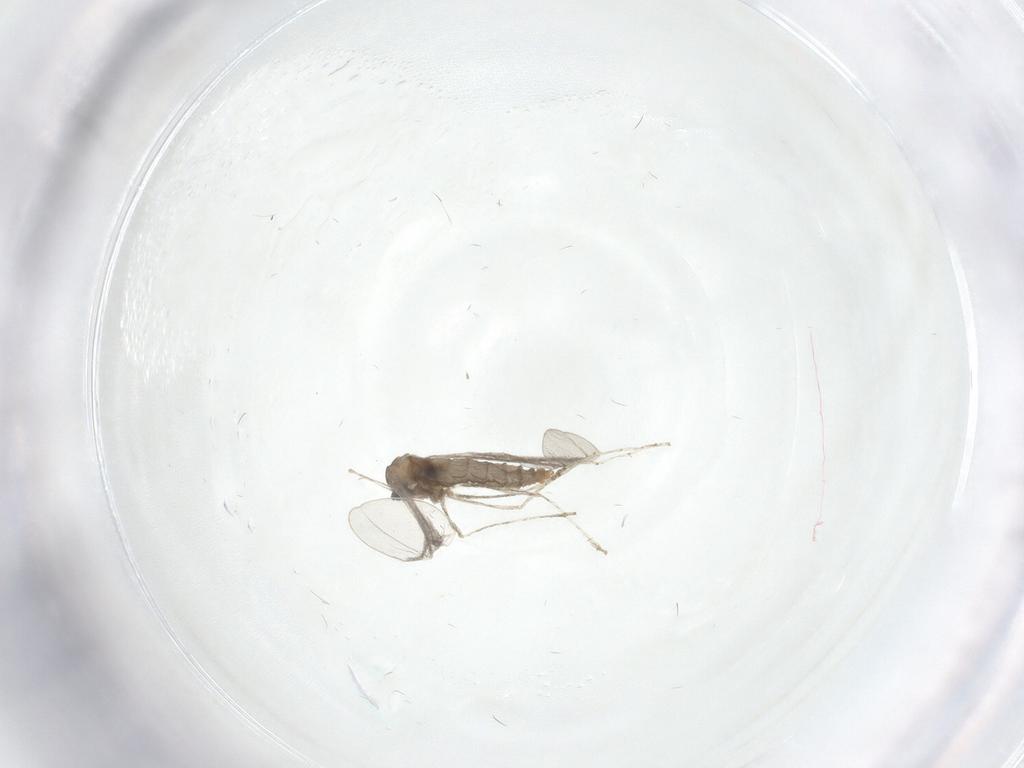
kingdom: Animalia
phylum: Arthropoda
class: Insecta
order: Diptera
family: Cecidomyiidae
